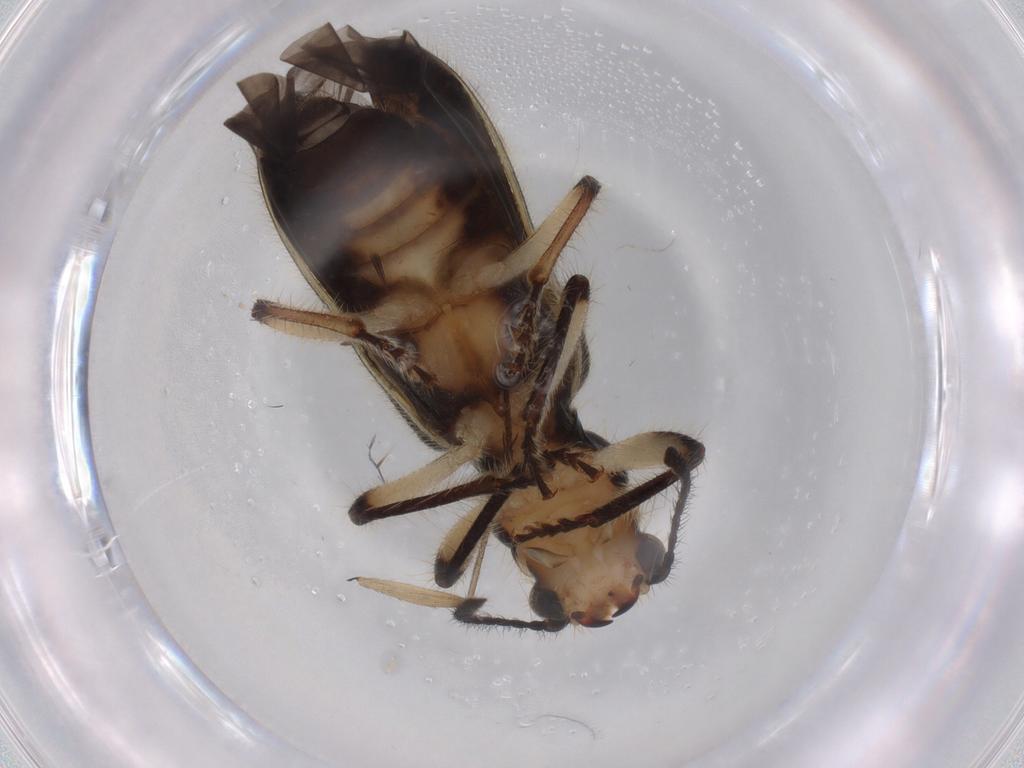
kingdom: Animalia
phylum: Arthropoda
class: Insecta
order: Coleoptera
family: Cleridae
